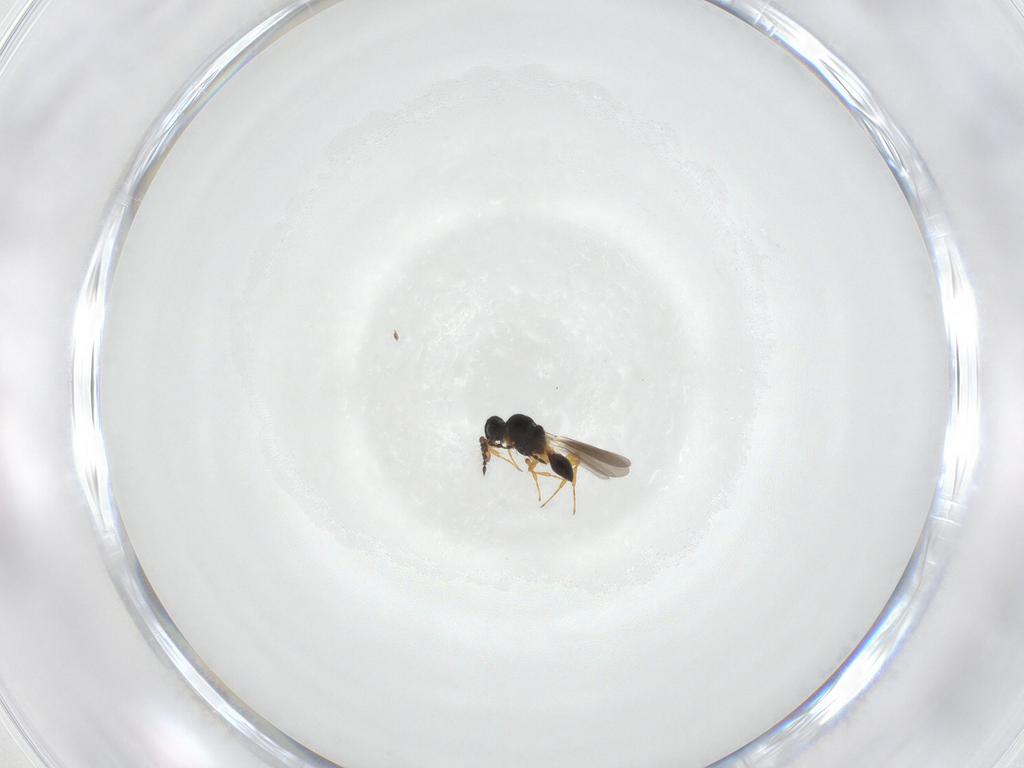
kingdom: Animalia
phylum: Arthropoda
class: Insecta
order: Hymenoptera
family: Platygastridae
